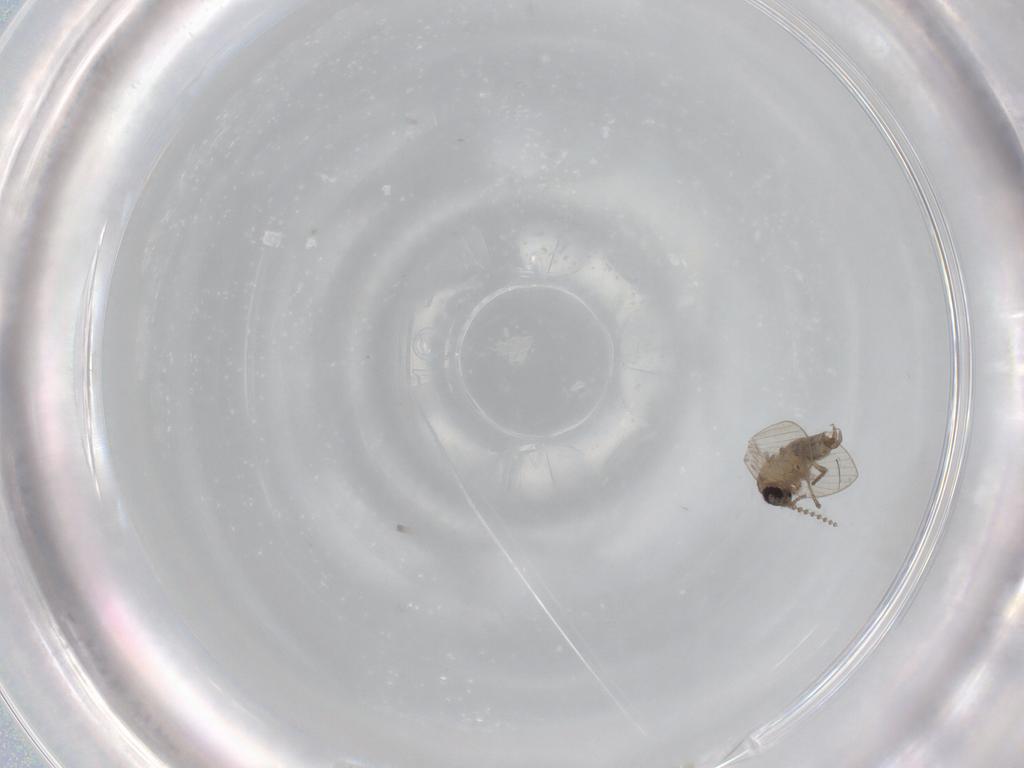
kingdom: Animalia
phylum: Arthropoda
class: Insecta
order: Diptera
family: Psychodidae
